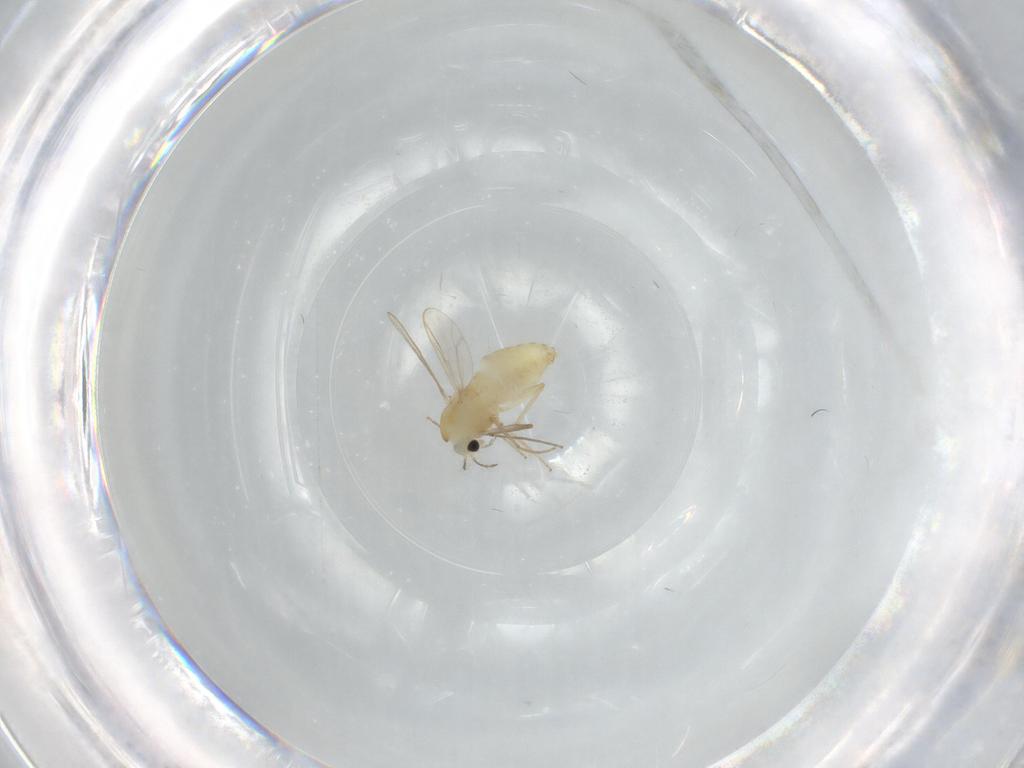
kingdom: Animalia
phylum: Arthropoda
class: Insecta
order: Diptera
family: Chironomidae
